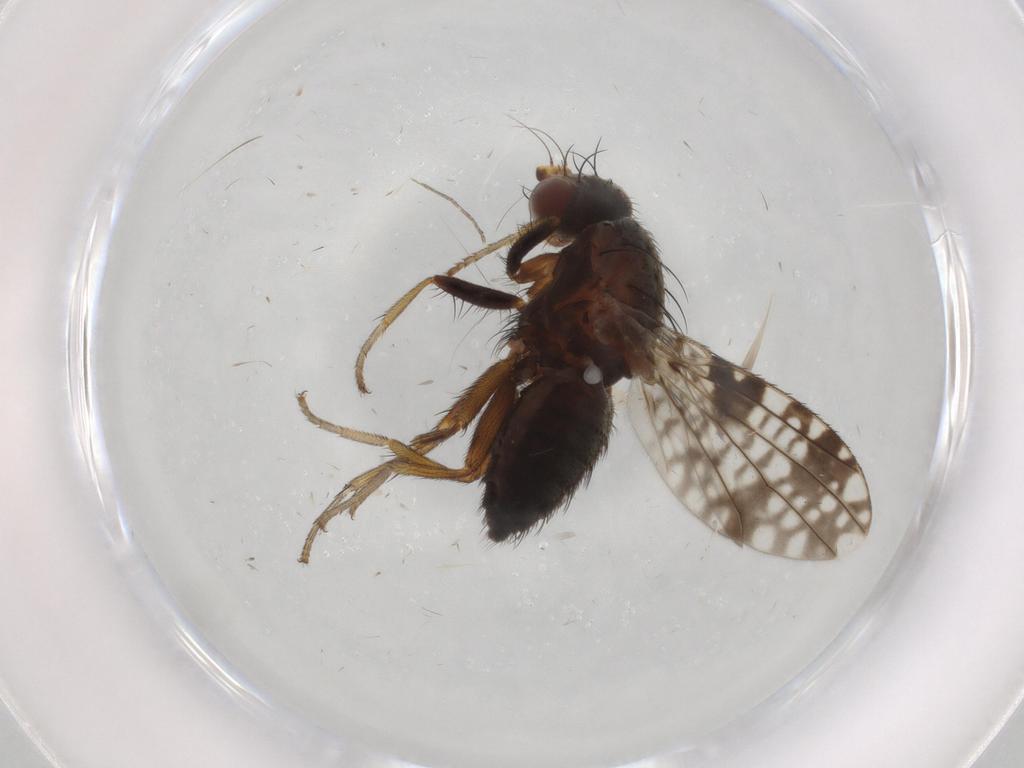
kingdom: Animalia
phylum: Arthropoda
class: Insecta
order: Diptera
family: Tephritidae
